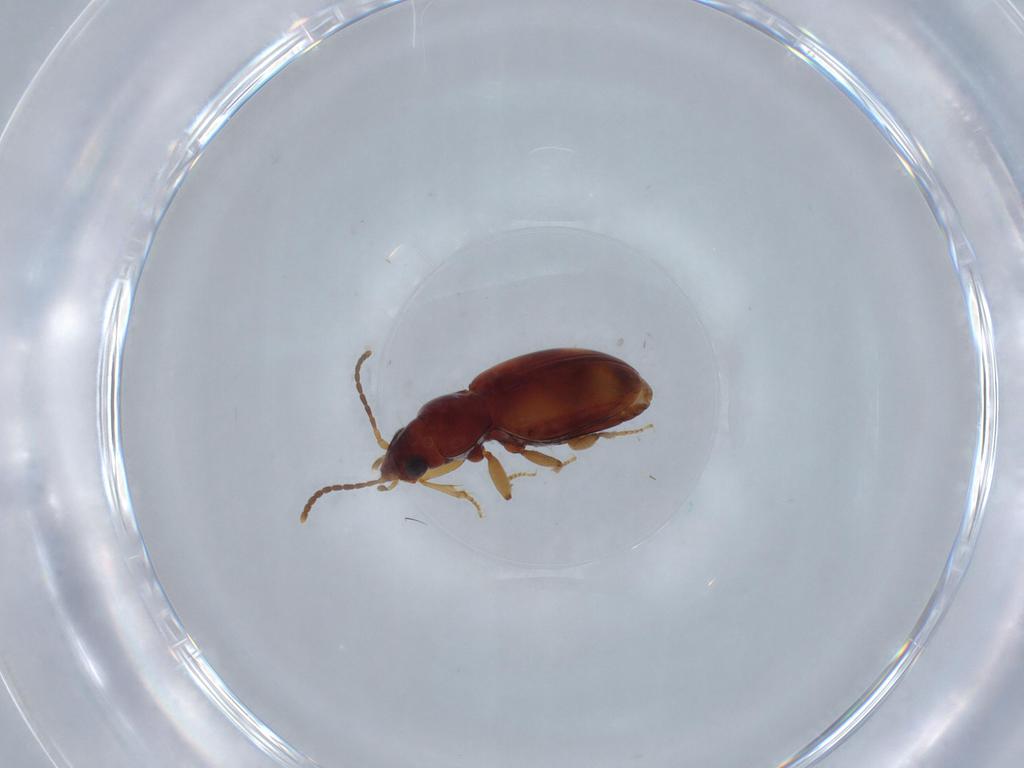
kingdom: Animalia
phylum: Arthropoda
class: Insecta
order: Coleoptera
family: Carabidae
